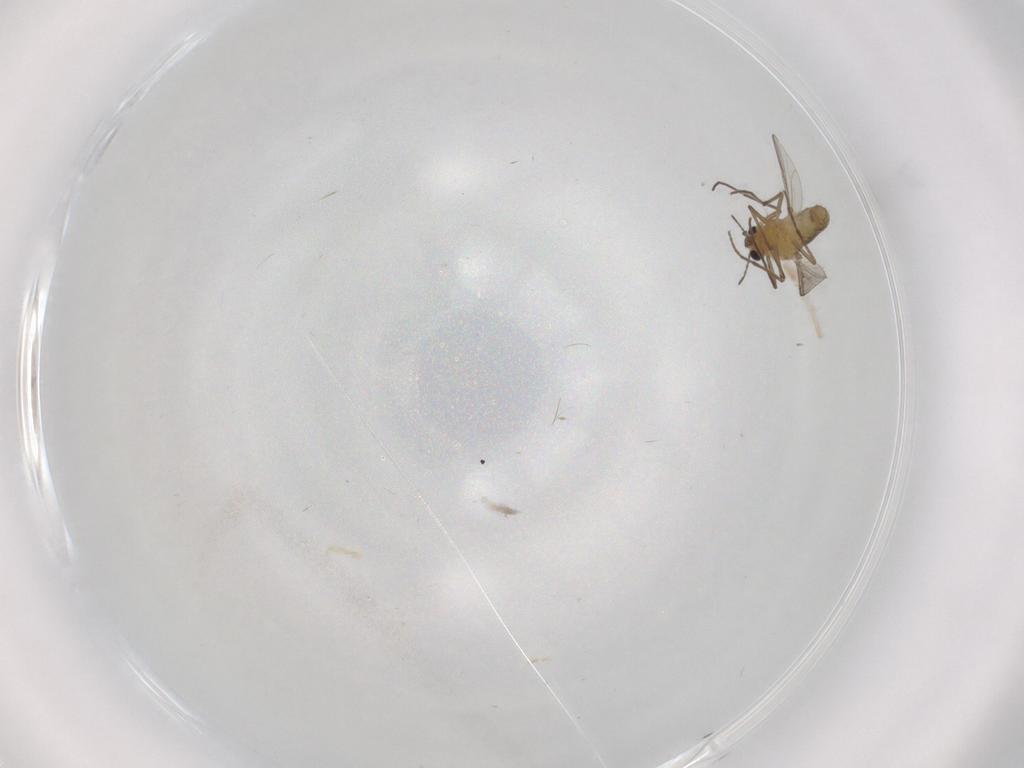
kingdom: Animalia
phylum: Arthropoda
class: Insecta
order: Diptera
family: Chironomidae
